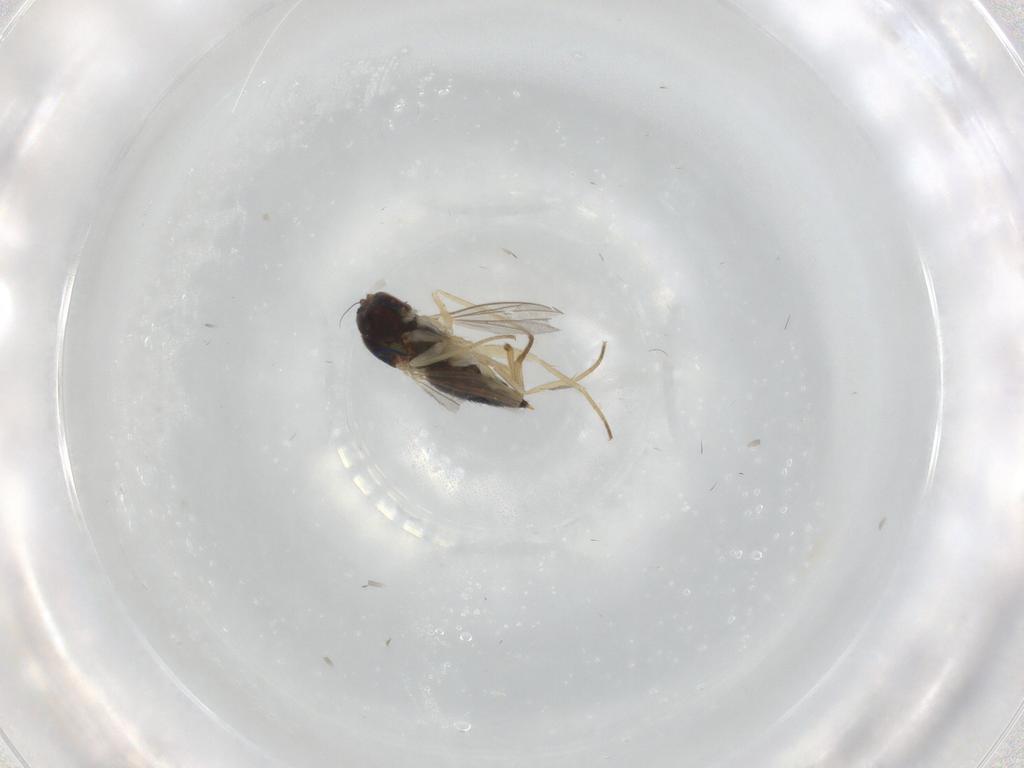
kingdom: Animalia
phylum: Arthropoda
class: Insecta
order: Diptera
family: Dolichopodidae
